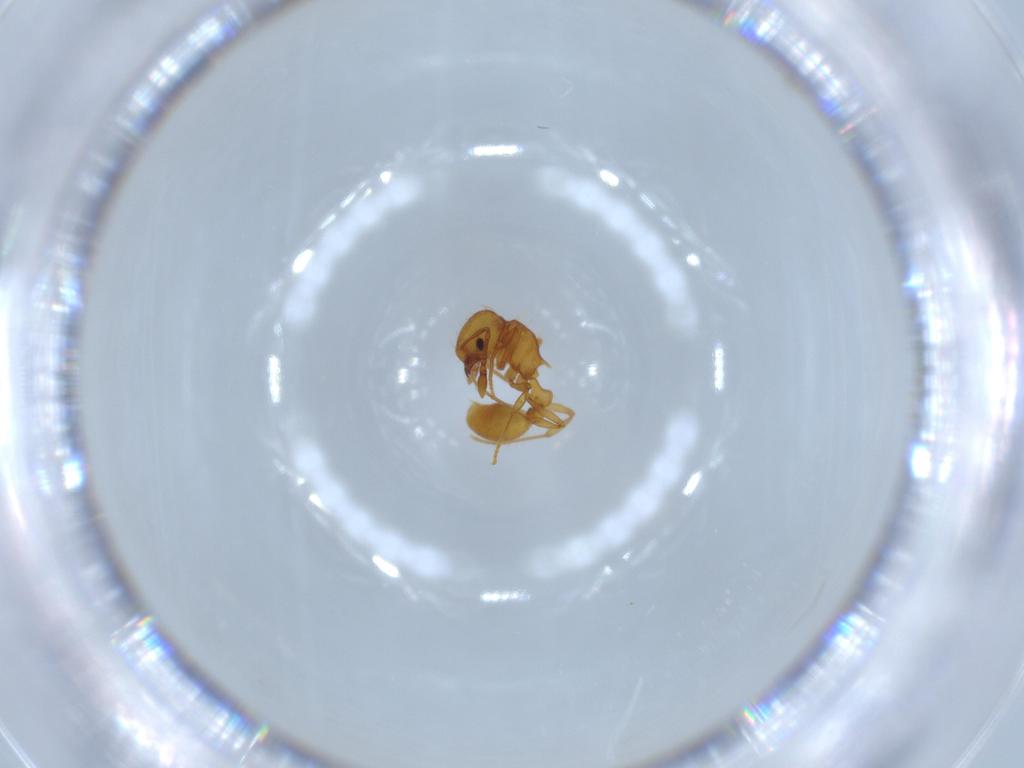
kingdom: Animalia
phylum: Arthropoda
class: Insecta
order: Hymenoptera
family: Formicidae
